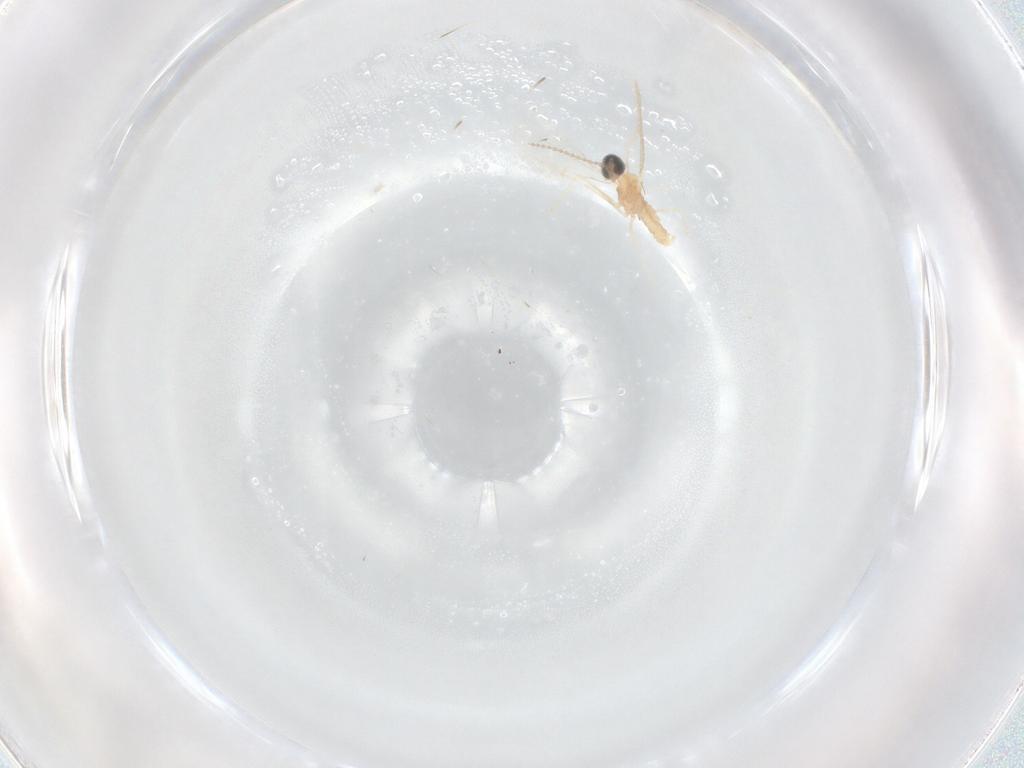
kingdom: Animalia
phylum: Arthropoda
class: Insecta
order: Diptera
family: Cecidomyiidae
